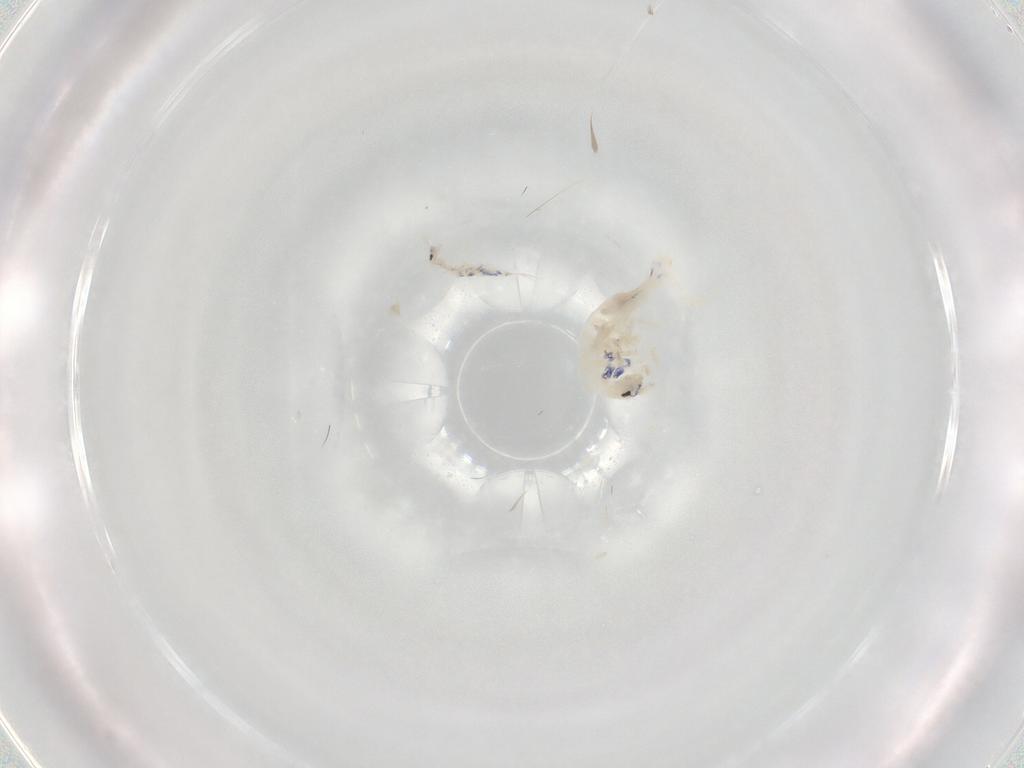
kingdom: Animalia
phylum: Arthropoda
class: Collembola
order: Entomobryomorpha
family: Entomobryidae
